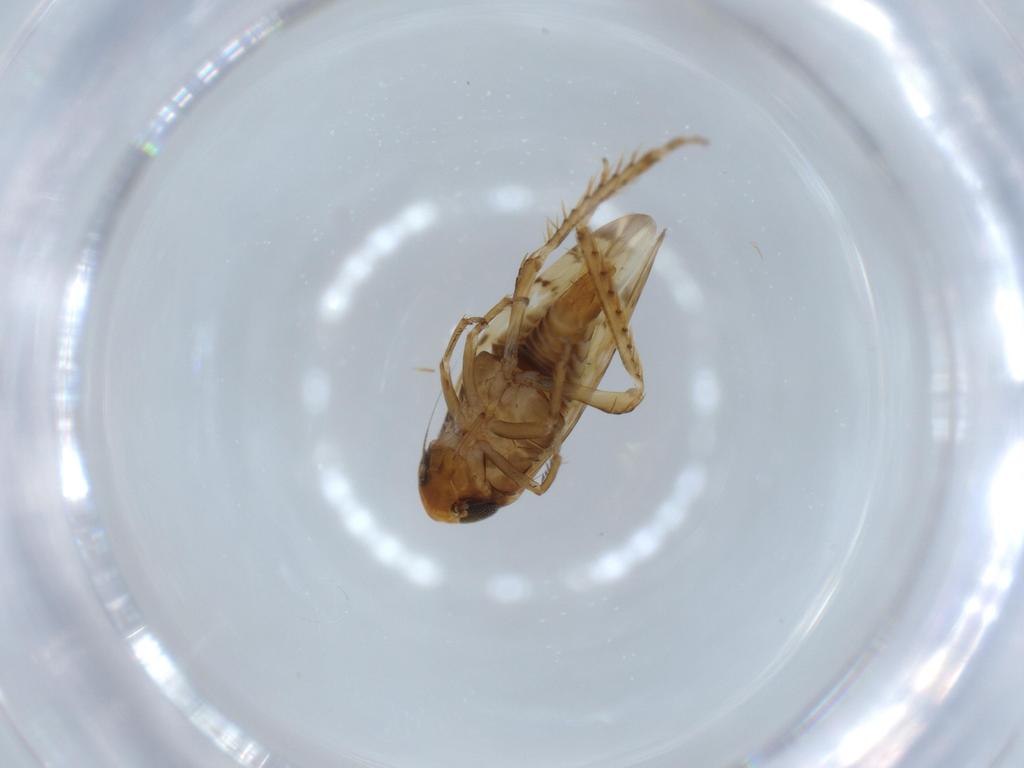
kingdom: Animalia
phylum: Arthropoda
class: Insecta
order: Hemiptera
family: Cicadellidae
